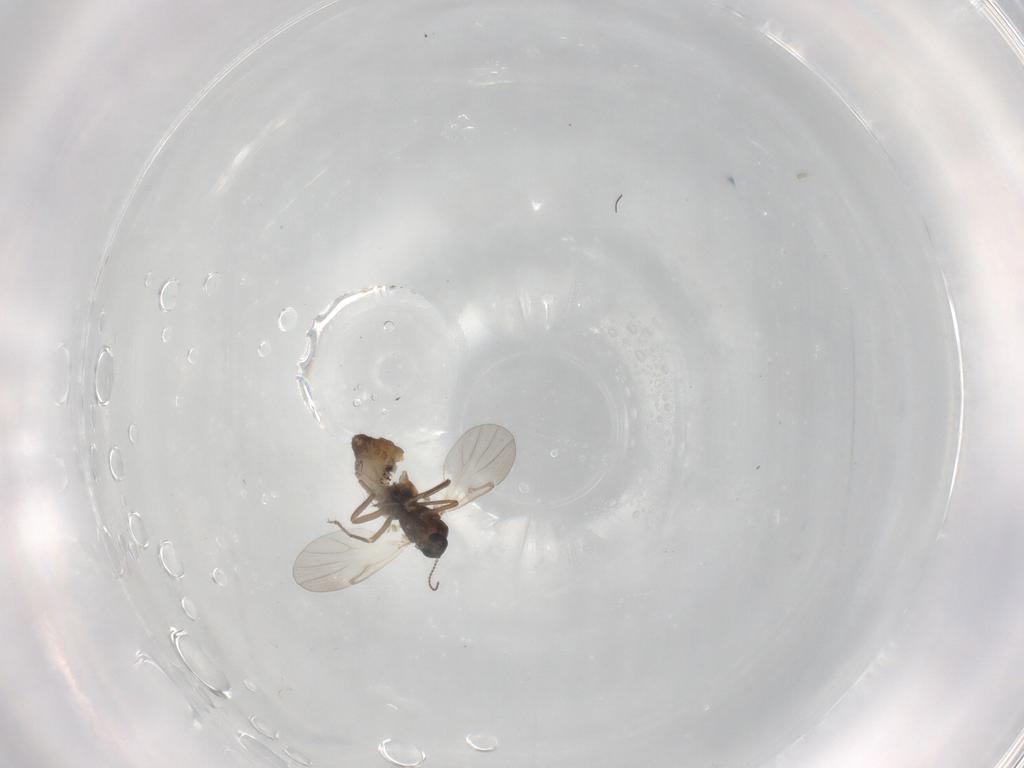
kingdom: Animalia
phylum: Arthropoda
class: Insecta
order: Diptera
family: Ceratopogonidae
